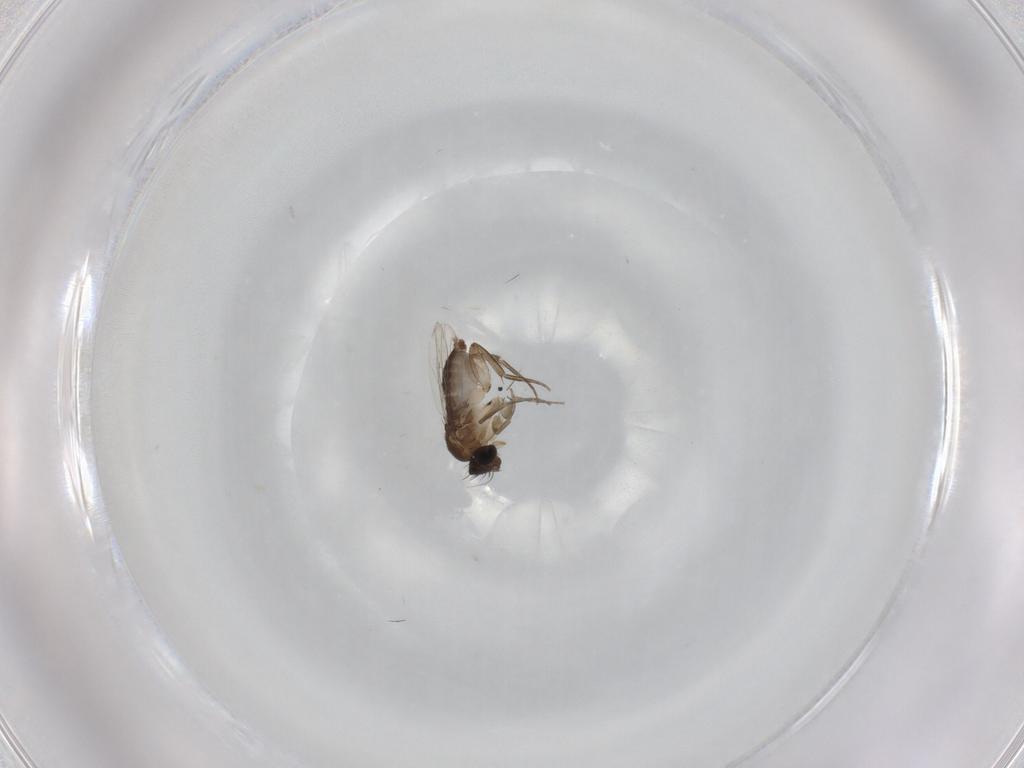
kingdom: Animalia
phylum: Arthropoda
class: Insecta
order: Diptera
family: Phoridae
